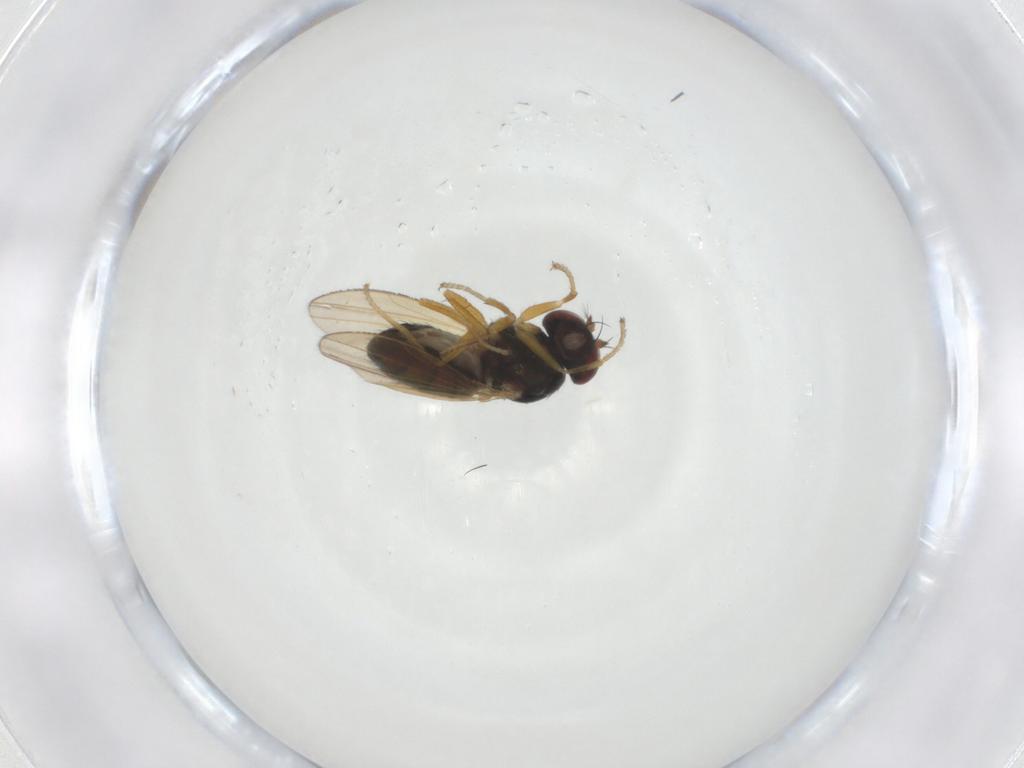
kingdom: Animalia
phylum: Arthropoda
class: Insecta
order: Diptera
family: Ephydridae
